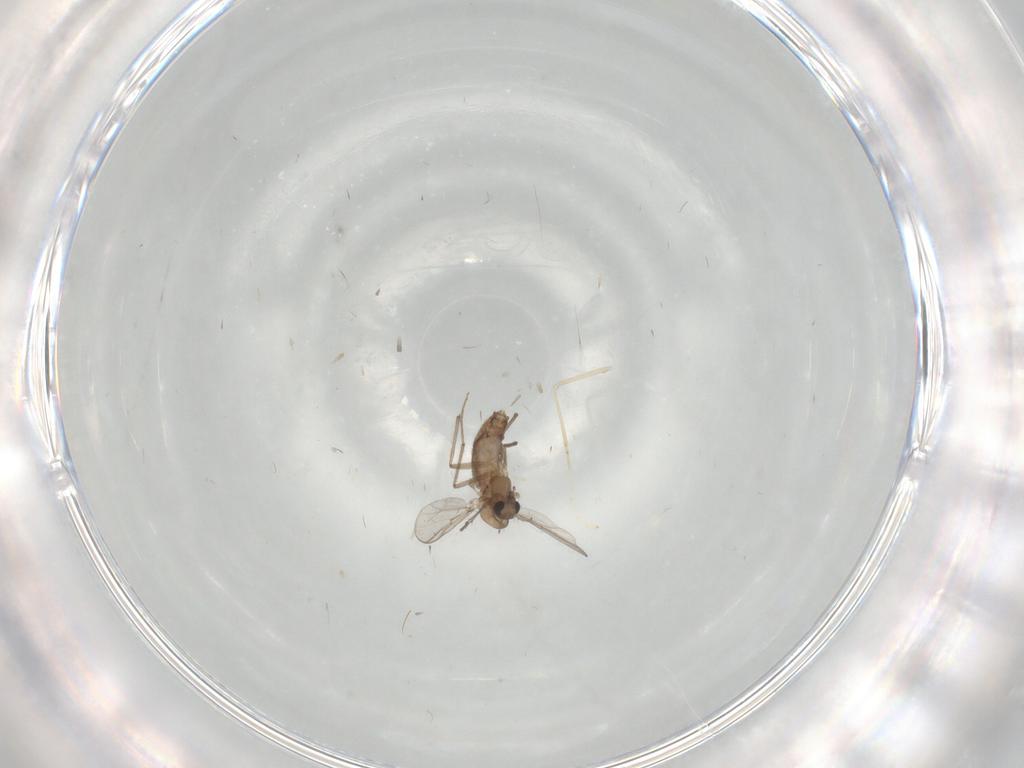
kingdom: Animalia
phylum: Arthropoda
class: Insecta
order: Diptera
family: Chironomidae
